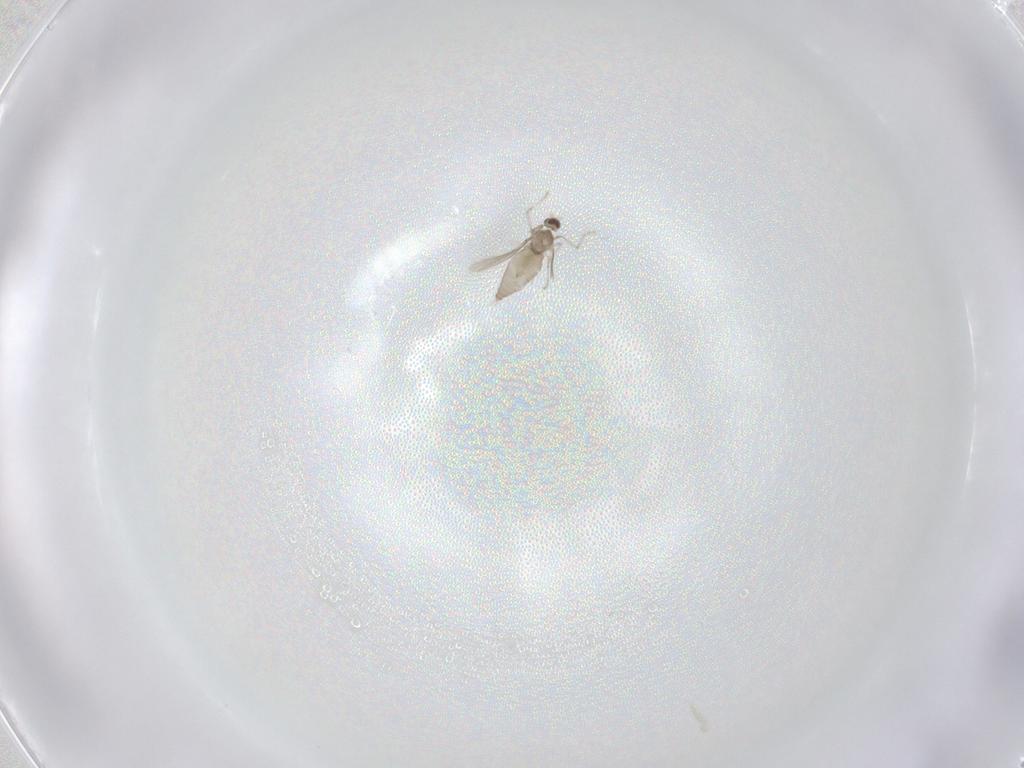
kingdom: Animalia
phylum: Arthropoda
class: Insecta
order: Diptera
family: Cecidomyiidae
